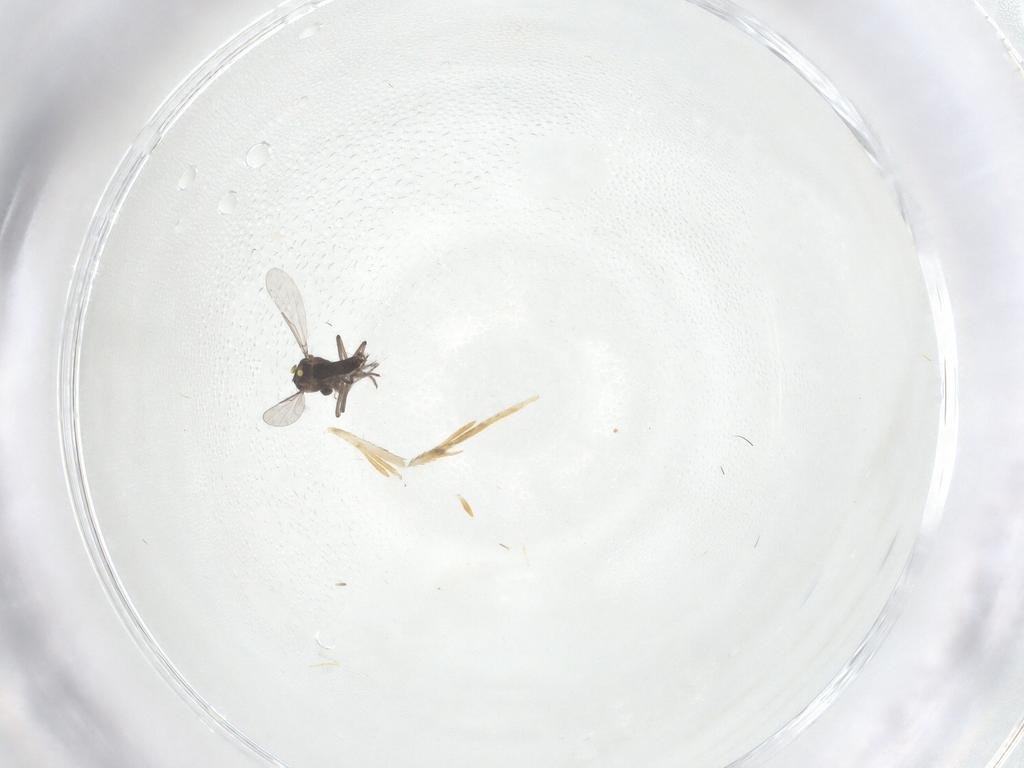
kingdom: Animalia
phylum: Arthropoda
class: Insecta
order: Diptera
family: Ceratopogonidae
